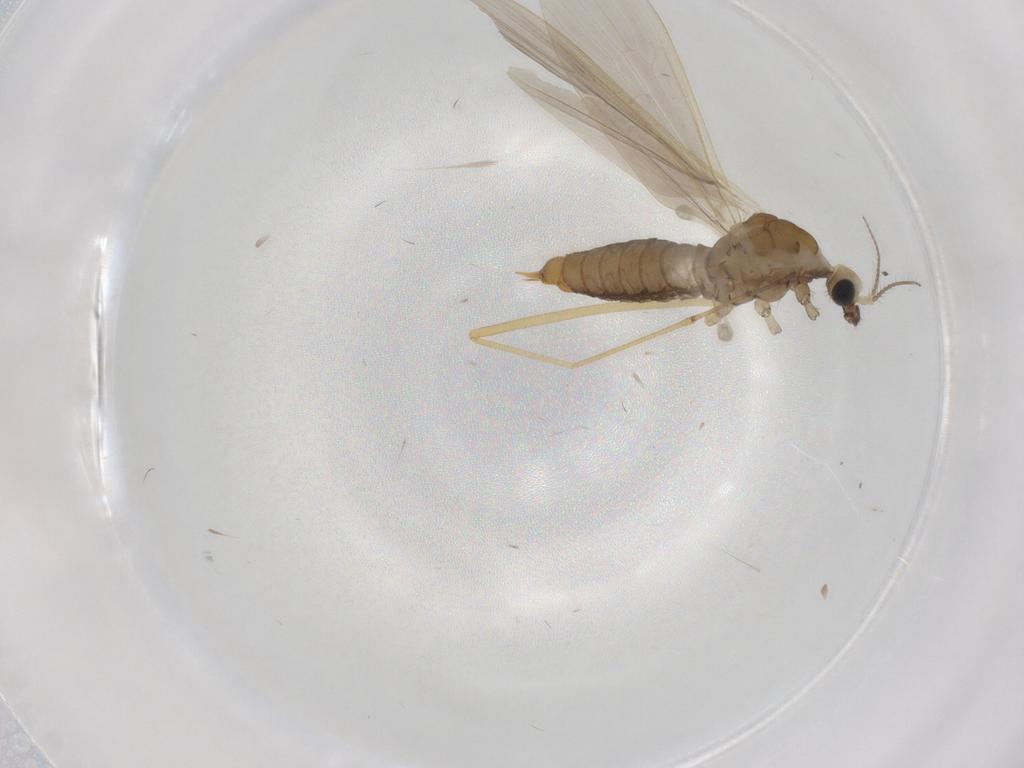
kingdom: Animalia
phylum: Arthropoda
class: Insecta
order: Diptera
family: Limoniidae
